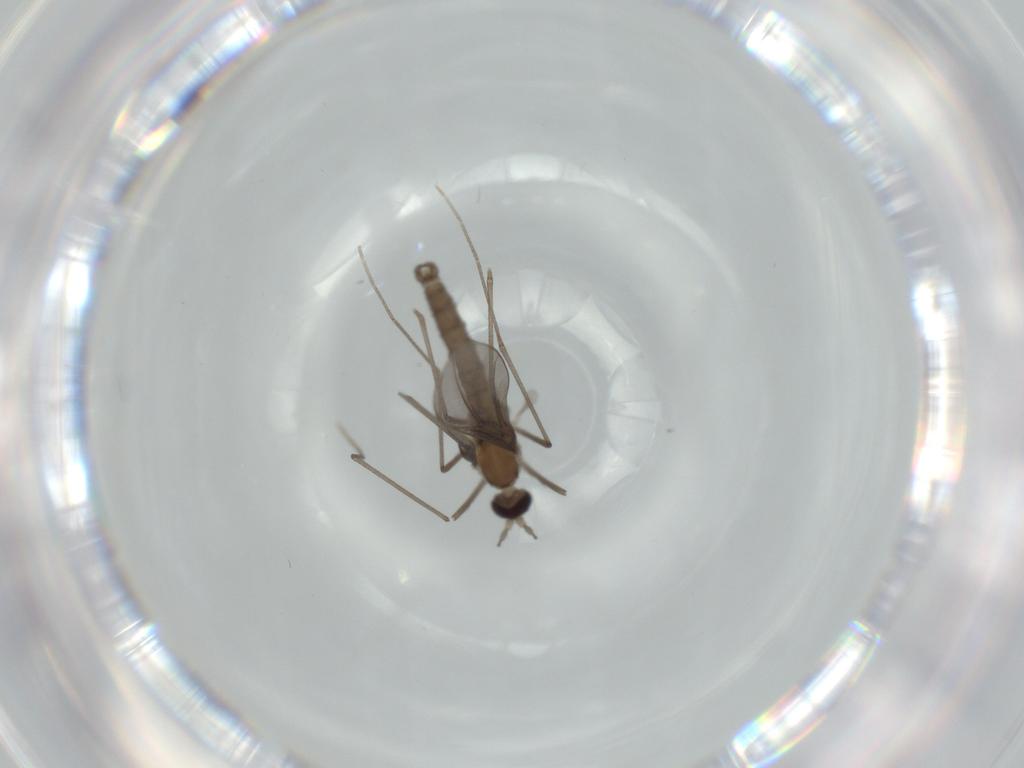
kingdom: Animalia
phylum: Arthropoda
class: Insecta
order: Diptera
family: Cecidomyiidae
